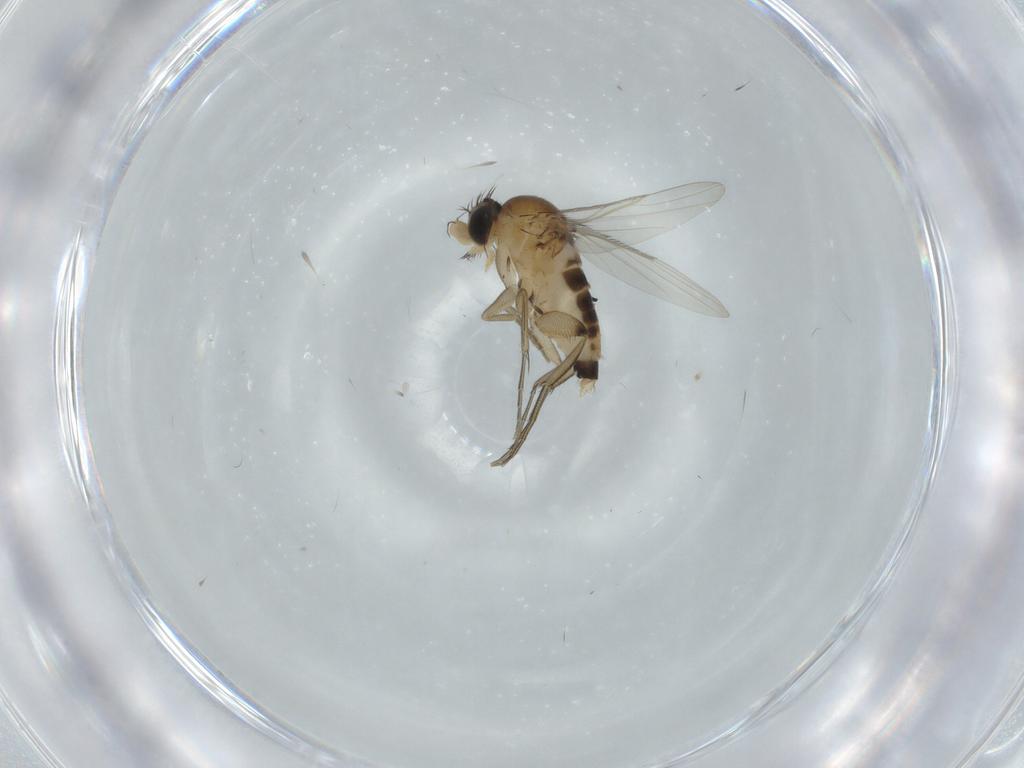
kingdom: Animalia
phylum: Arthropoda
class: Insecta
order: Diptera
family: Phoridae
